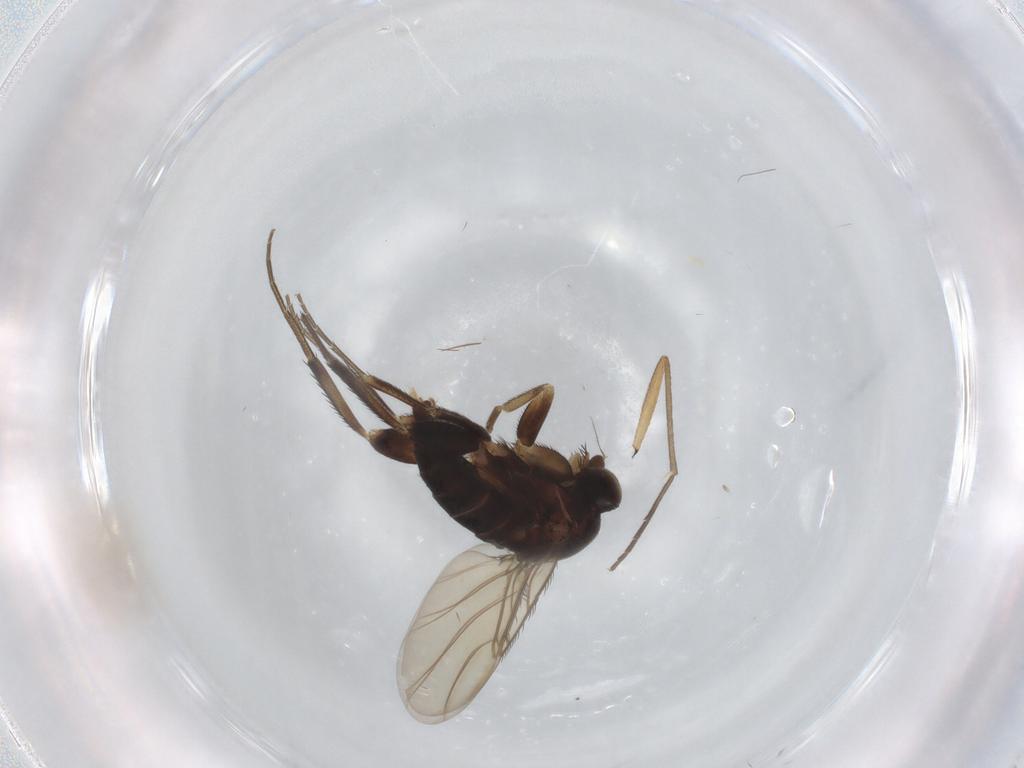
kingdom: Animalia
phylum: Arthropoda
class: Insecta
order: Diptera
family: Phoridae
